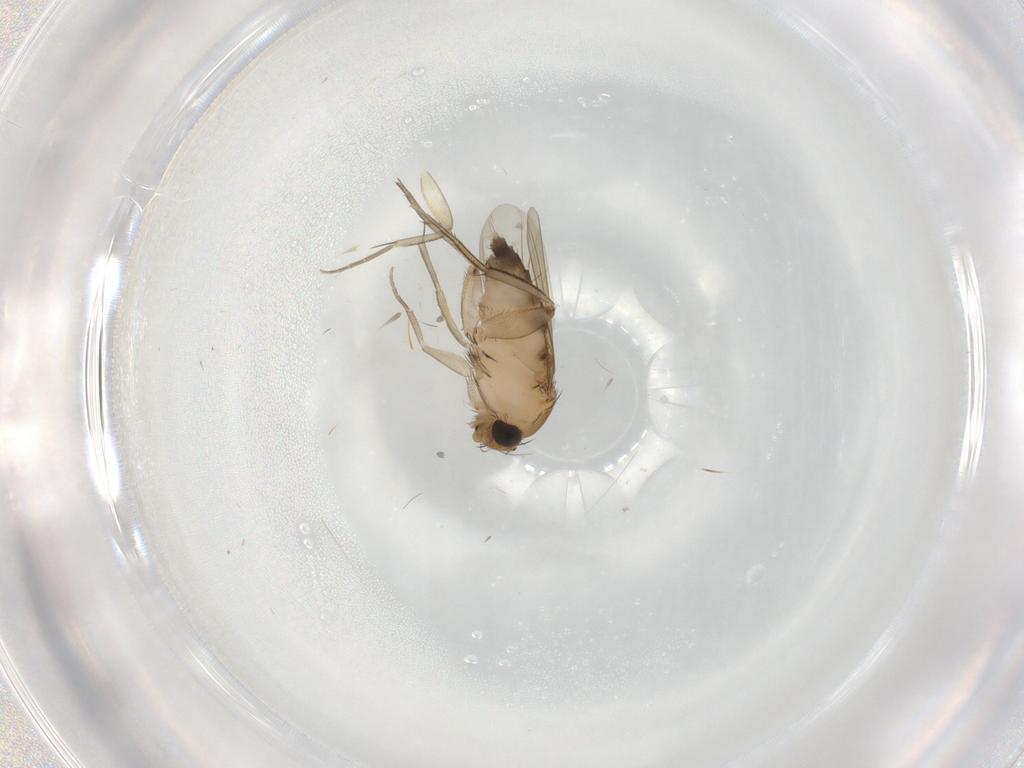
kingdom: Animalia
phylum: Arthropoda
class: Insecta
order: Diptera
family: Phoridae
